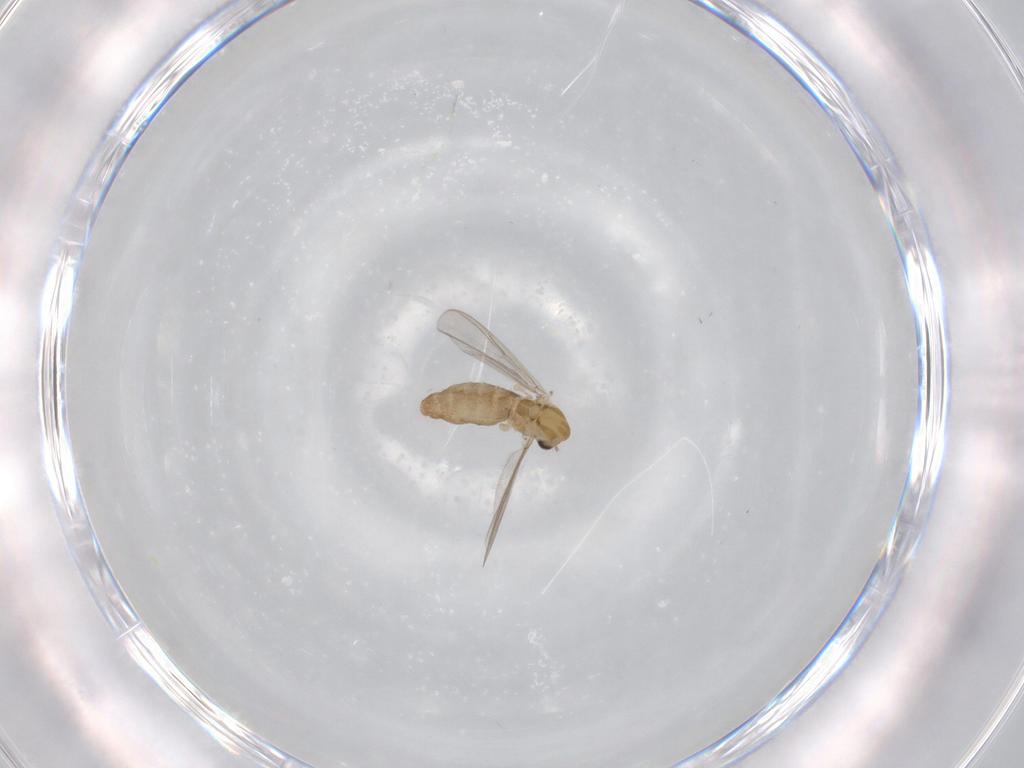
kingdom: Animalia
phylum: Arthropoda
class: Insecta
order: Diptera
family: Chironomidae
